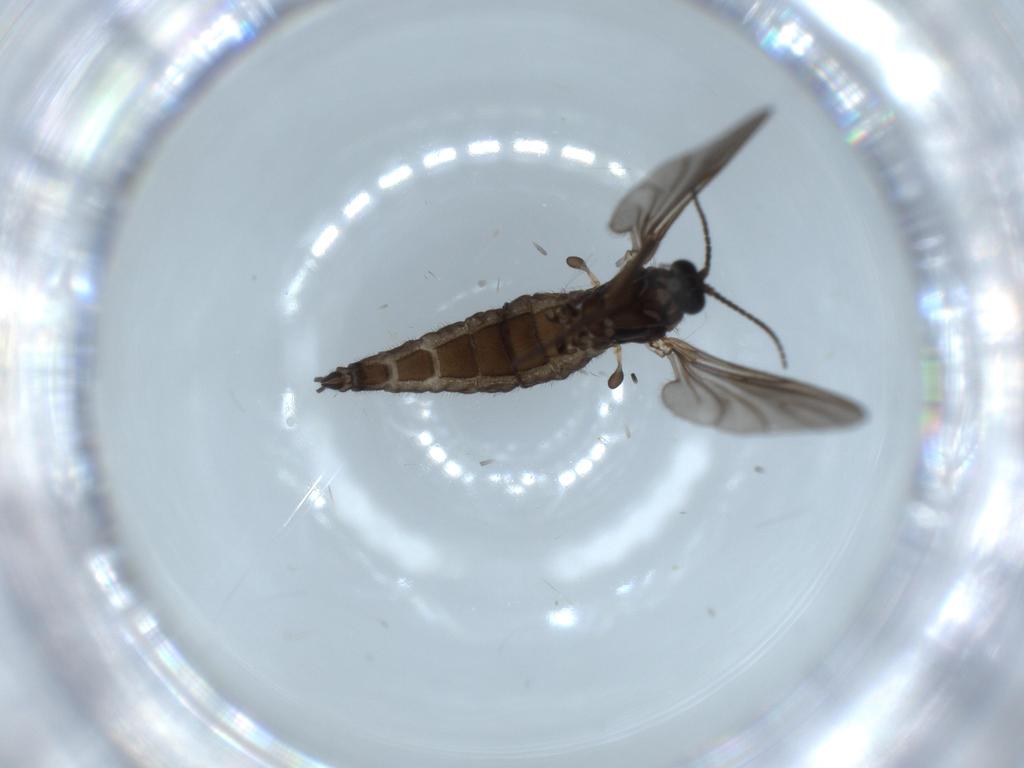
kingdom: Animalia
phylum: Arthropoda
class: Insecta
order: Diptera
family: Sciaridae
